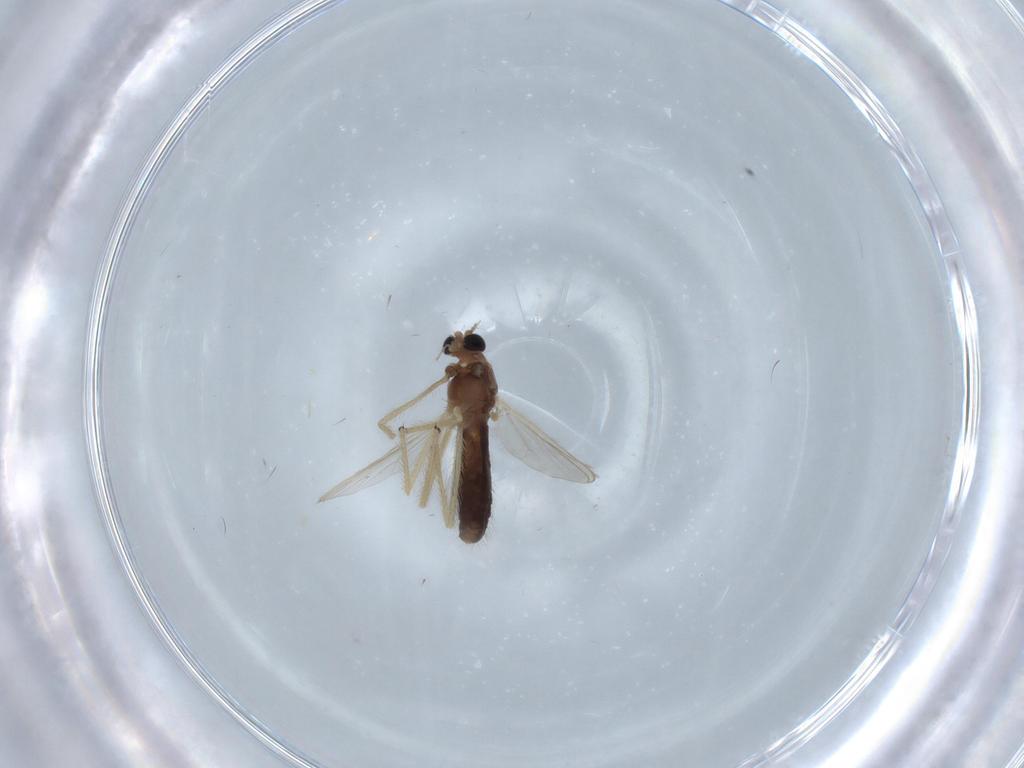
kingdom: Animalia
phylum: Arthropoda
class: Insecta
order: Diptera
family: Chironomidae
